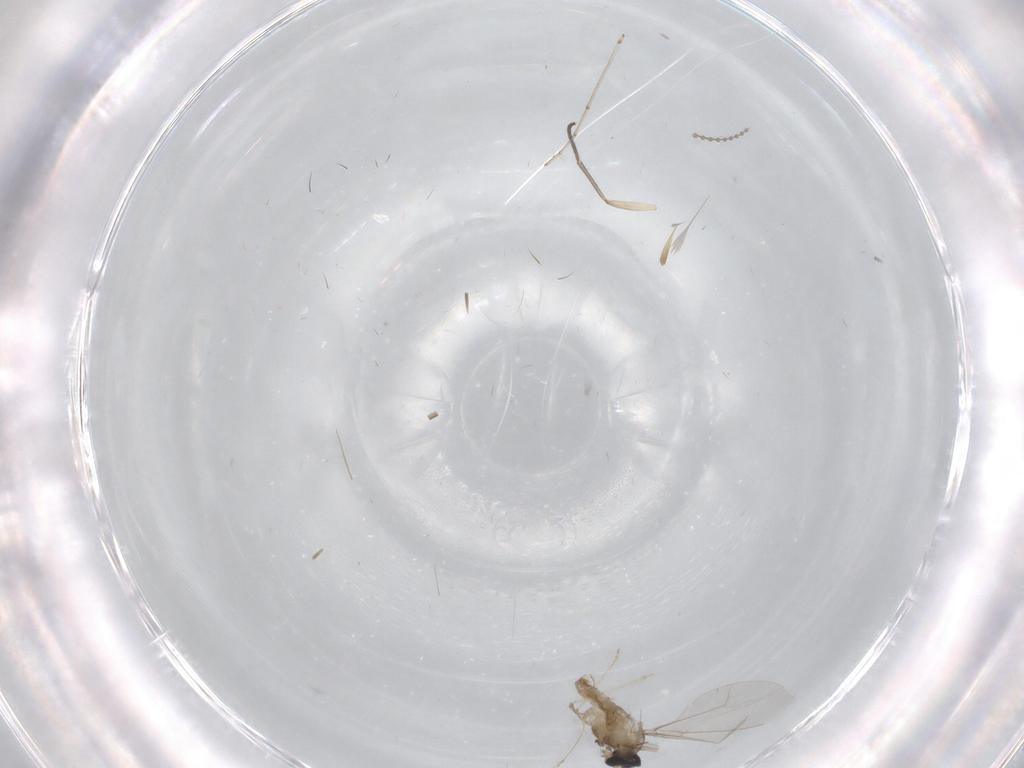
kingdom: Animalia
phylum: Arthropoda
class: Insecta
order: Diptera
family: Cecidomyiidae
